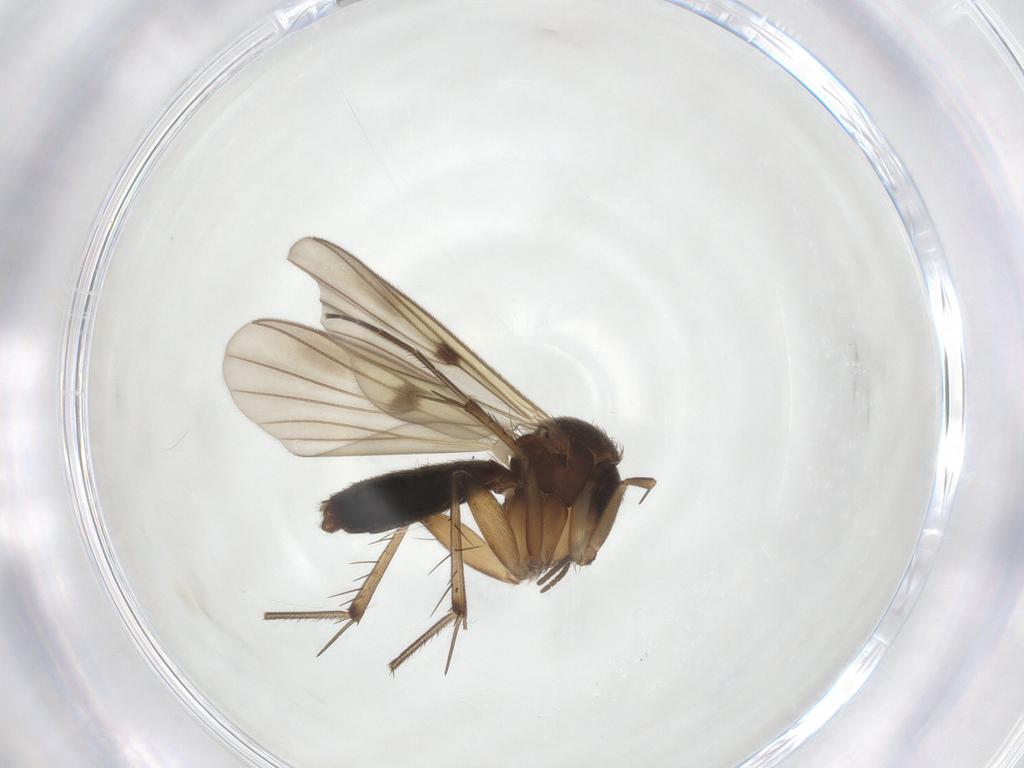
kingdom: Animalia
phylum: Arthropoda
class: Insecta
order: Diptera
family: Mycetophilidae
